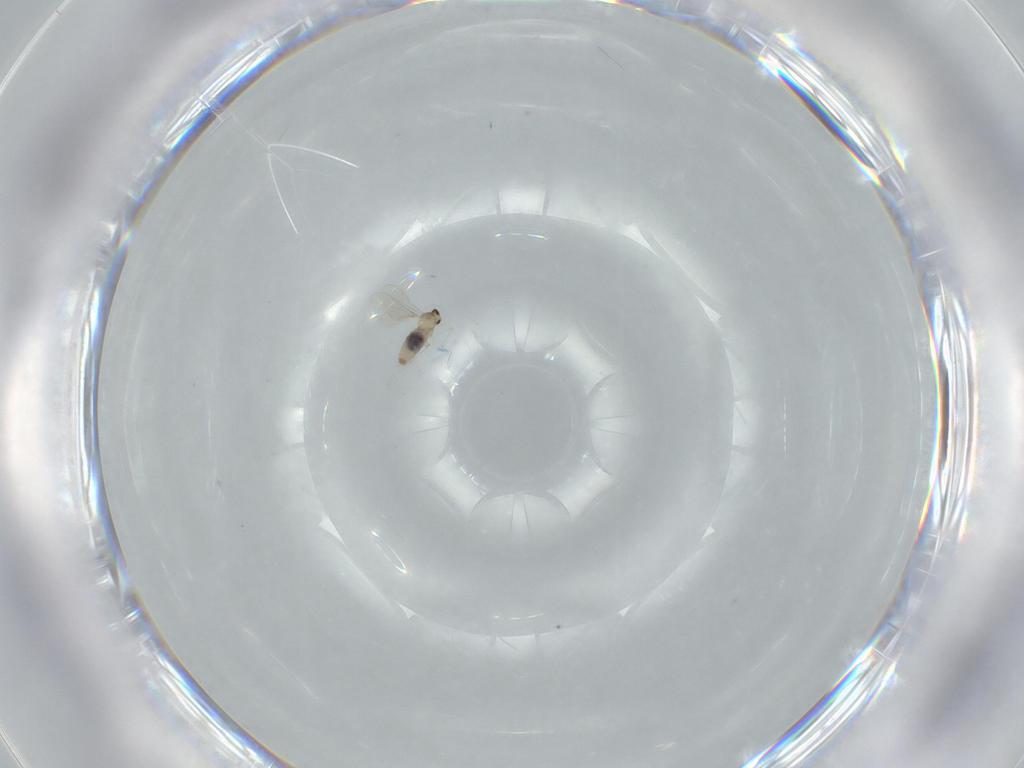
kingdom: Animalia
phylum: Arthropoda
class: Insecta
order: Diptera
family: Cecidomyiidae
